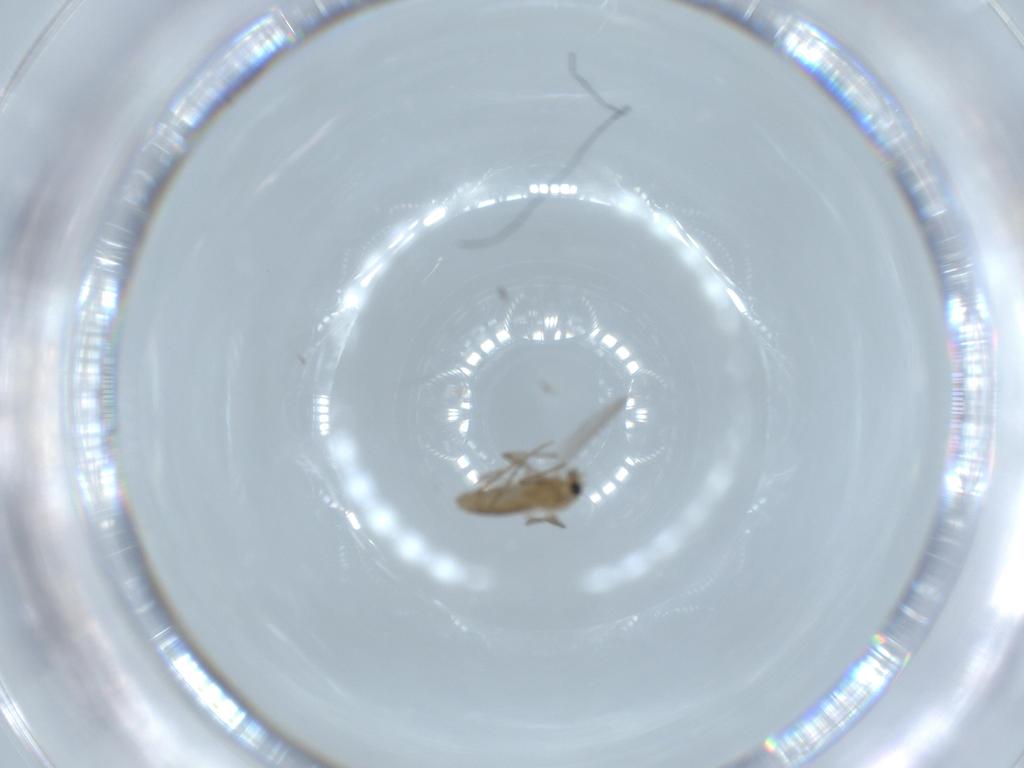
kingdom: Animalia
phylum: Arthropoda
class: Insecta
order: Diptera
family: Chironomidae
